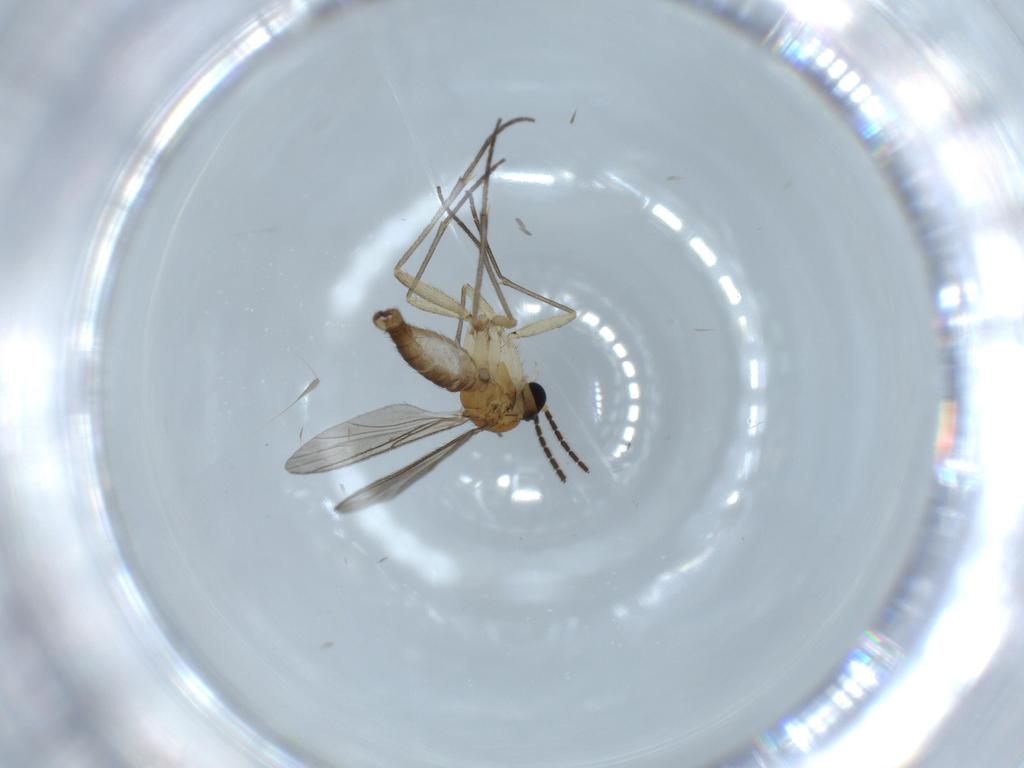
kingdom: Animalia
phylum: Arthropoda
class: Insecta
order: Diptera
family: Sciaridae
